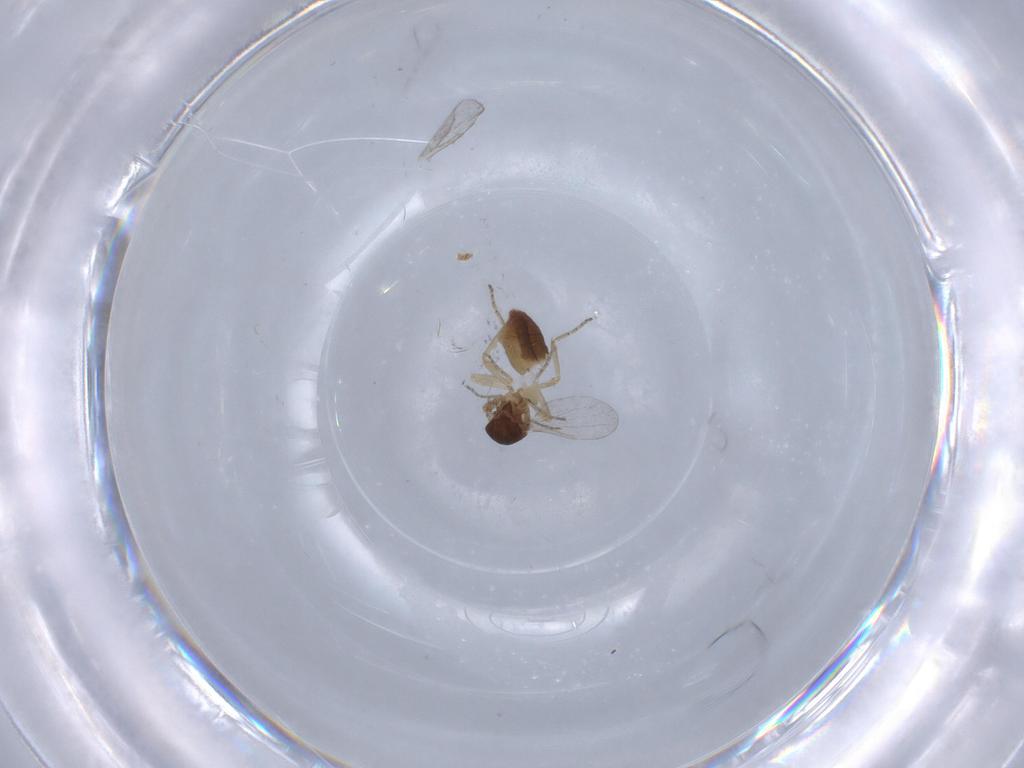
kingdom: Animalia
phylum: Arthropoda
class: Insecta
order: Diptera
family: Ceratopogonidae
